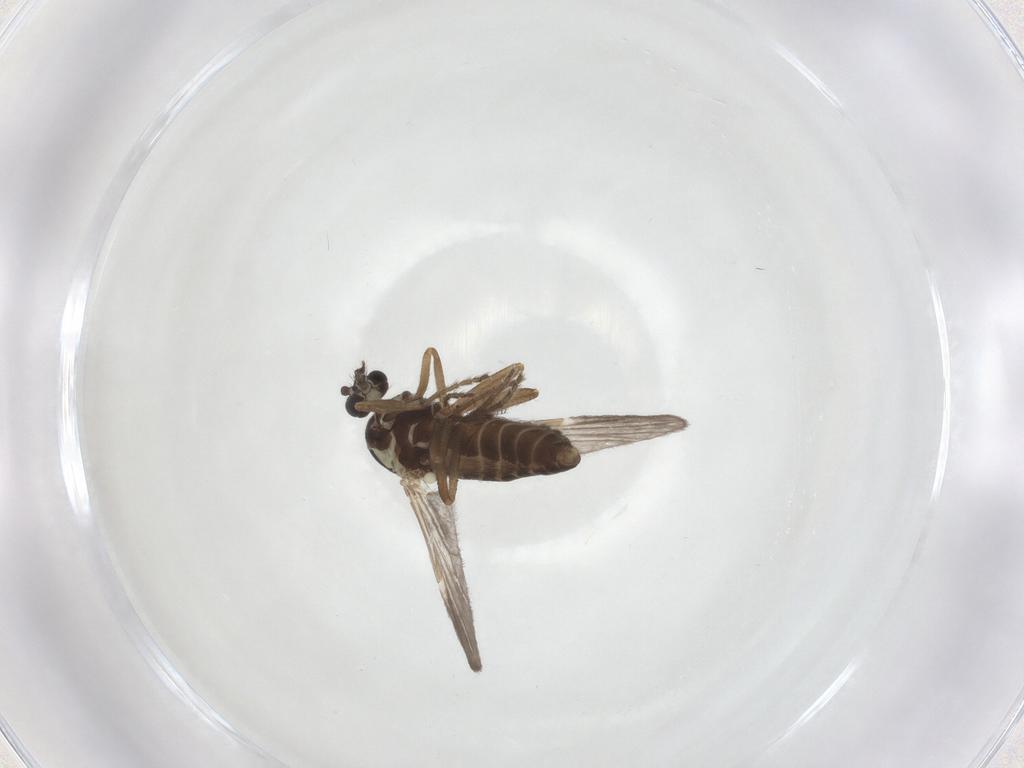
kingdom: Animalia
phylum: Arthropoda
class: Insecta
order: Diptera
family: Ceratopogonidae
